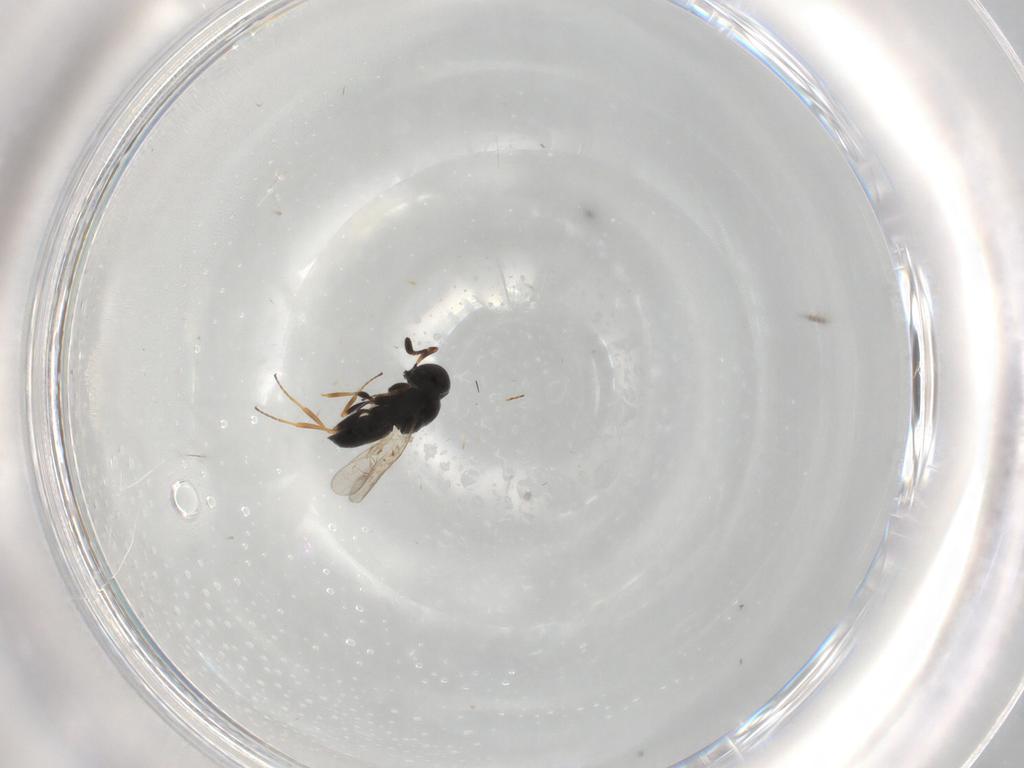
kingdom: Animalia
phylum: Arthropoda
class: Insecta
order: Hymenoptera
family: Scelionidae
